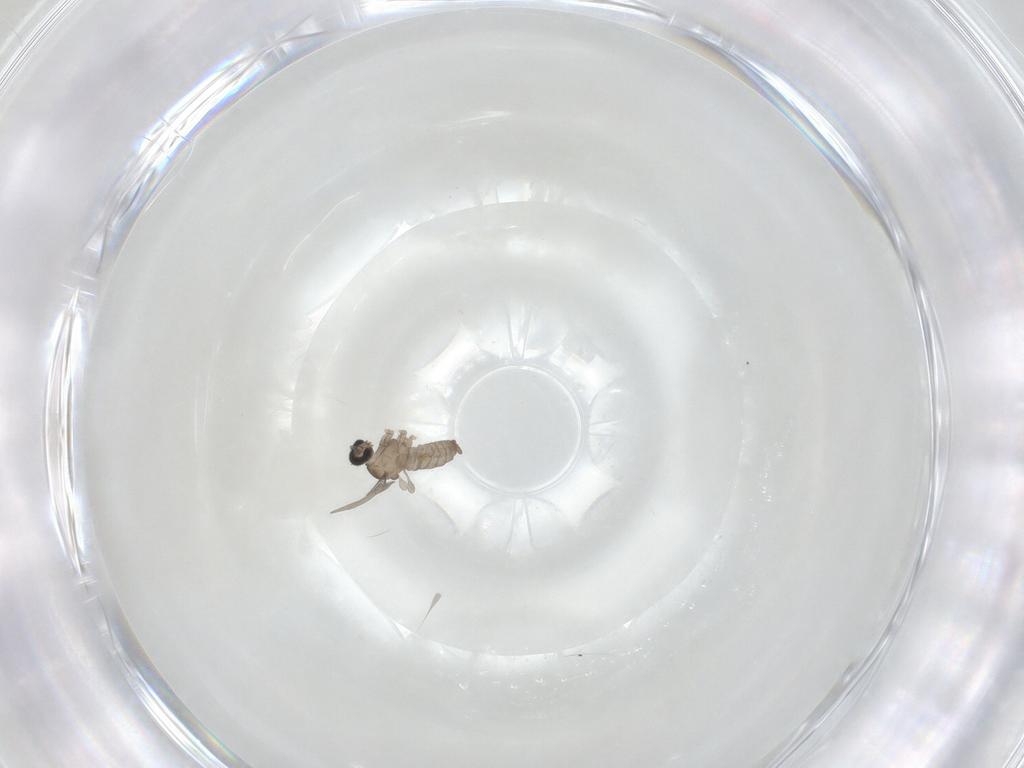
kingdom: Animalia
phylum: Arthropoda
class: Insecta
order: Diptera
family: Cecidomyiidae
